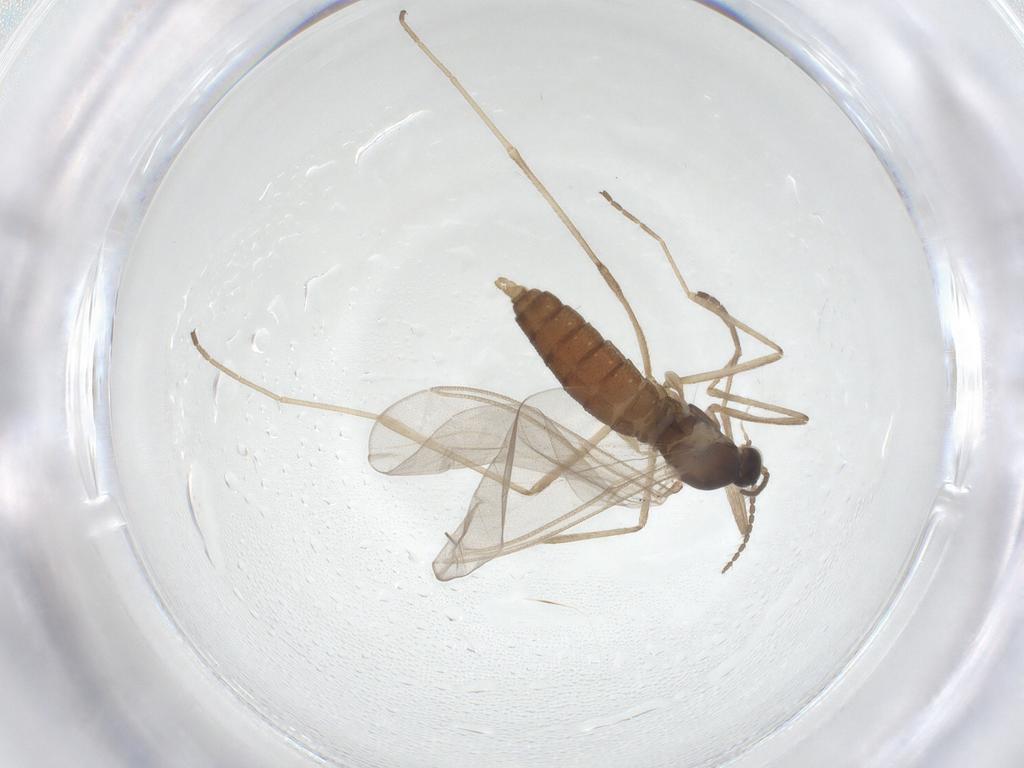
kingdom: Animalia
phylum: Arthropoda
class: Insecta
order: Diptera
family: Cecidomyiidae
